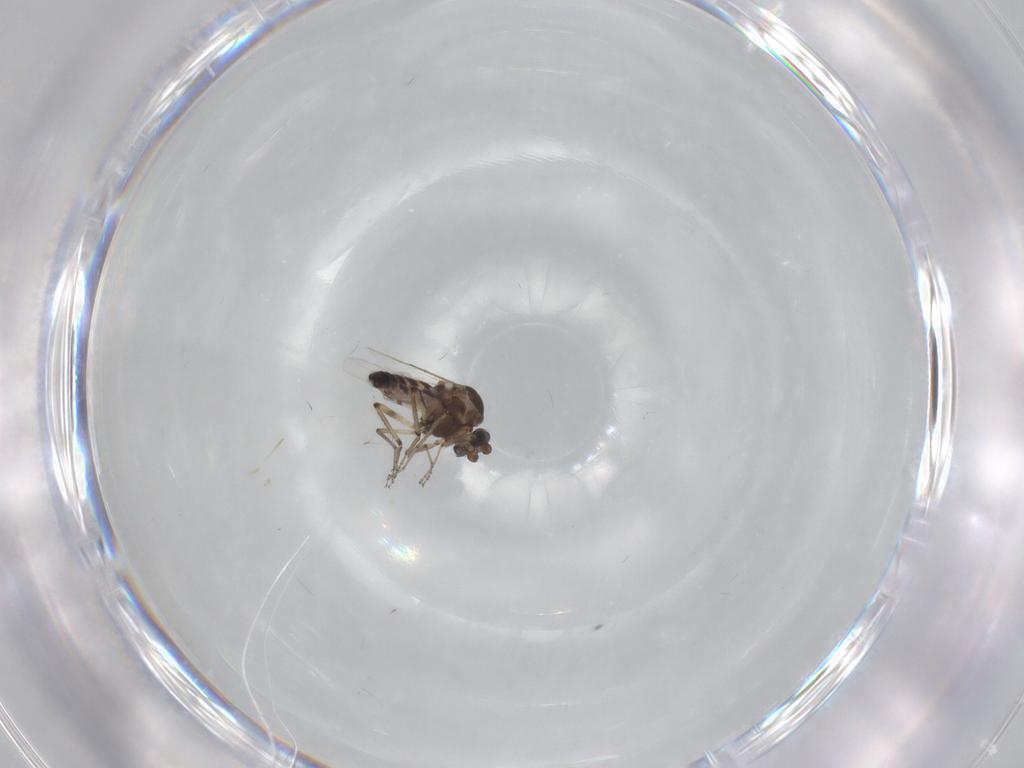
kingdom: Animalia
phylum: Arthropoda
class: Insecta
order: Diptera
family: Ceratopogonidae
